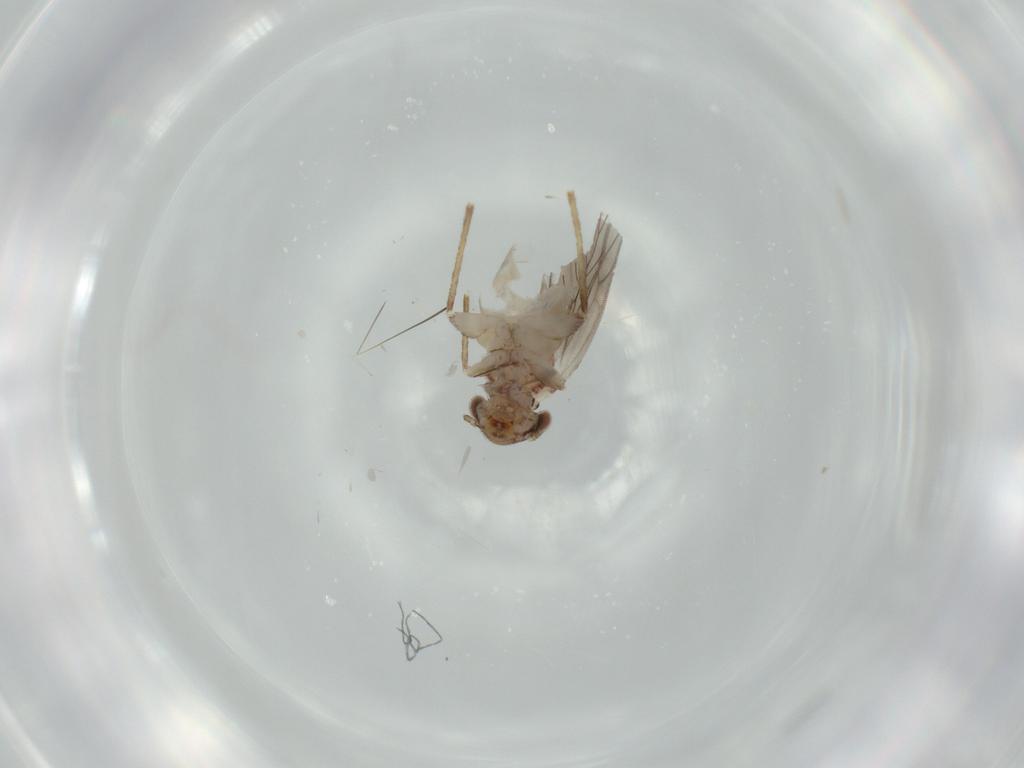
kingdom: Animalia
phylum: Arthropoda
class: Insecta
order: Psocodea
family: Lepidopsocidae
